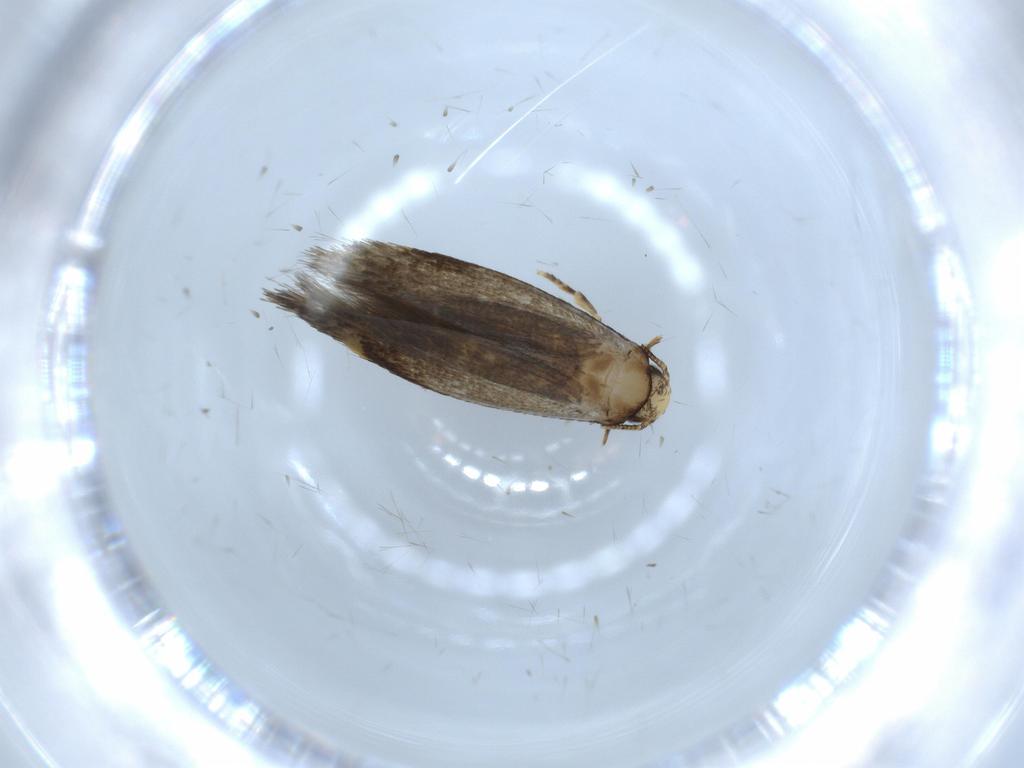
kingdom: Animalia
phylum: Arthropoda
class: Insecta
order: Lepidoptera
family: Tineidae
